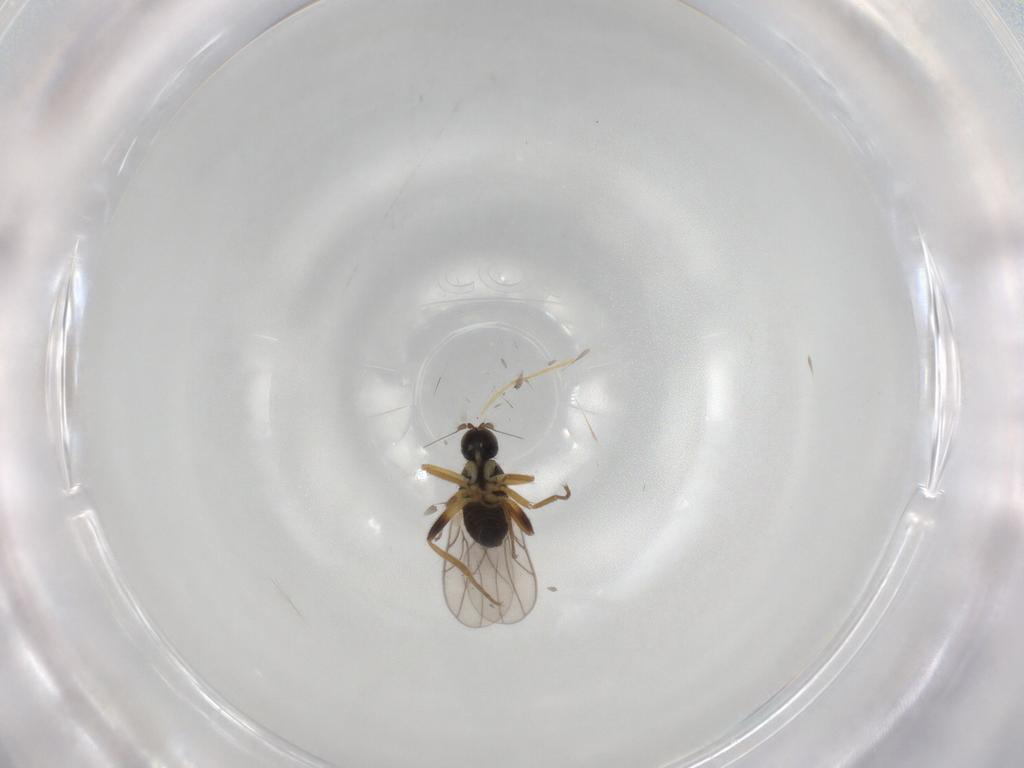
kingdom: Animalia
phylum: Arthropoda
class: Insecta
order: Diptera
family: Hybotidae
